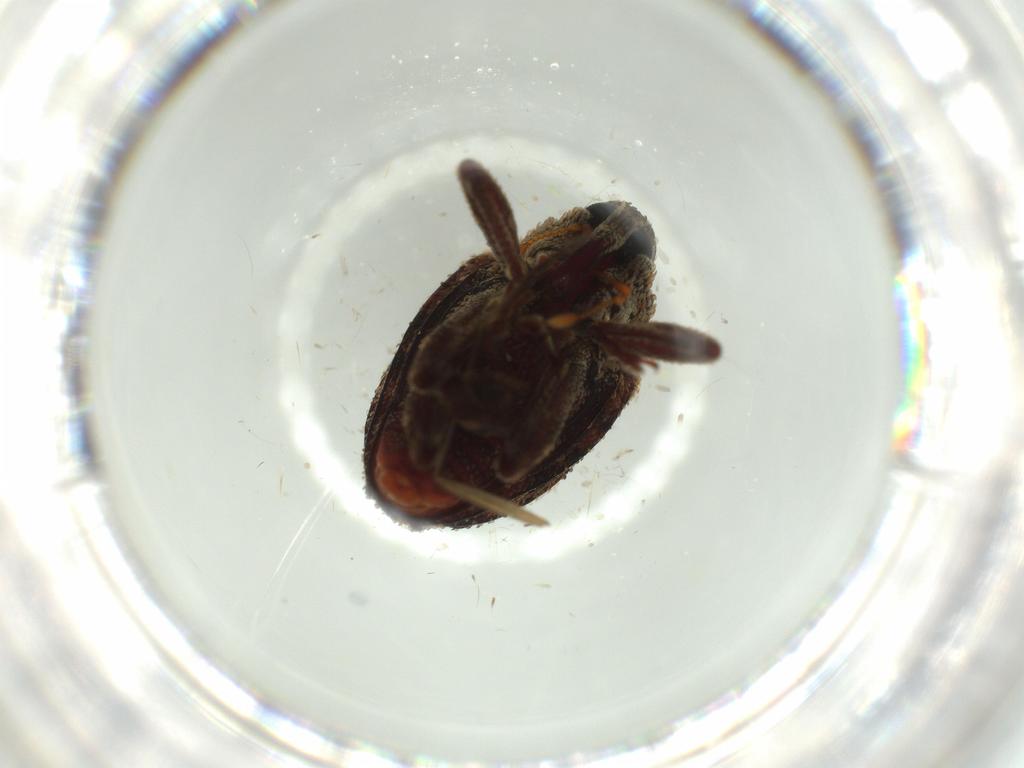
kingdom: Animalia
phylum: Arthropoda
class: Insecta
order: Coleoptera
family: Curculionidae
